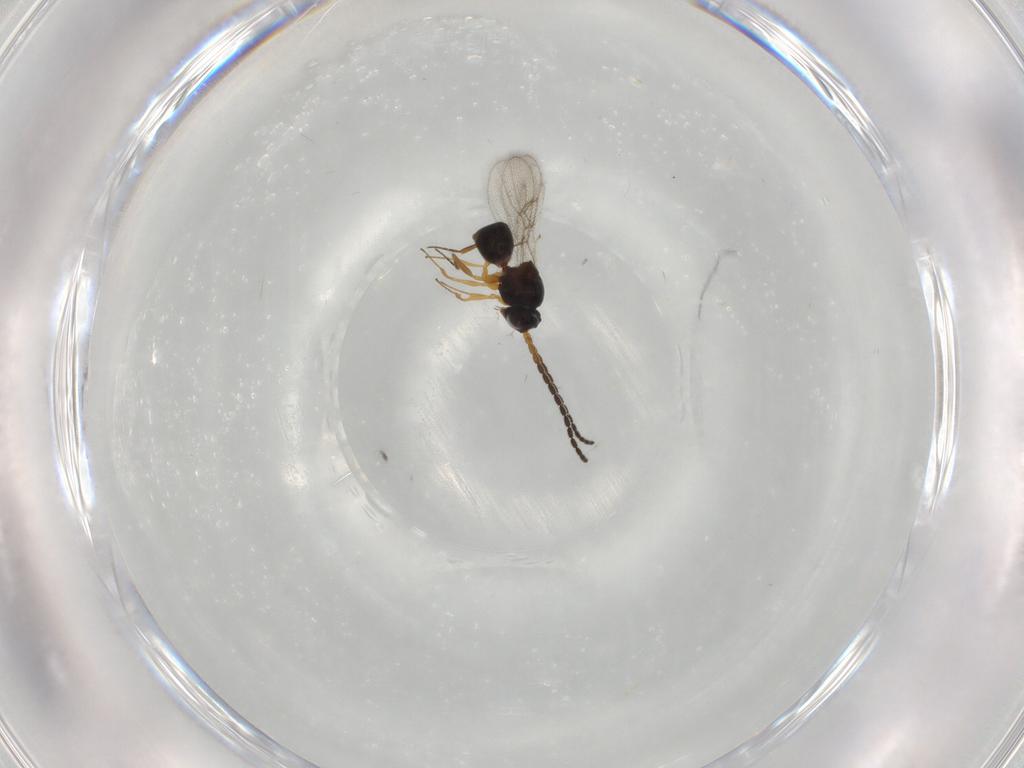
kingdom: Animalia
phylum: Arthropoda
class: Insecta
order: Hymenoptera
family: Figitidae
